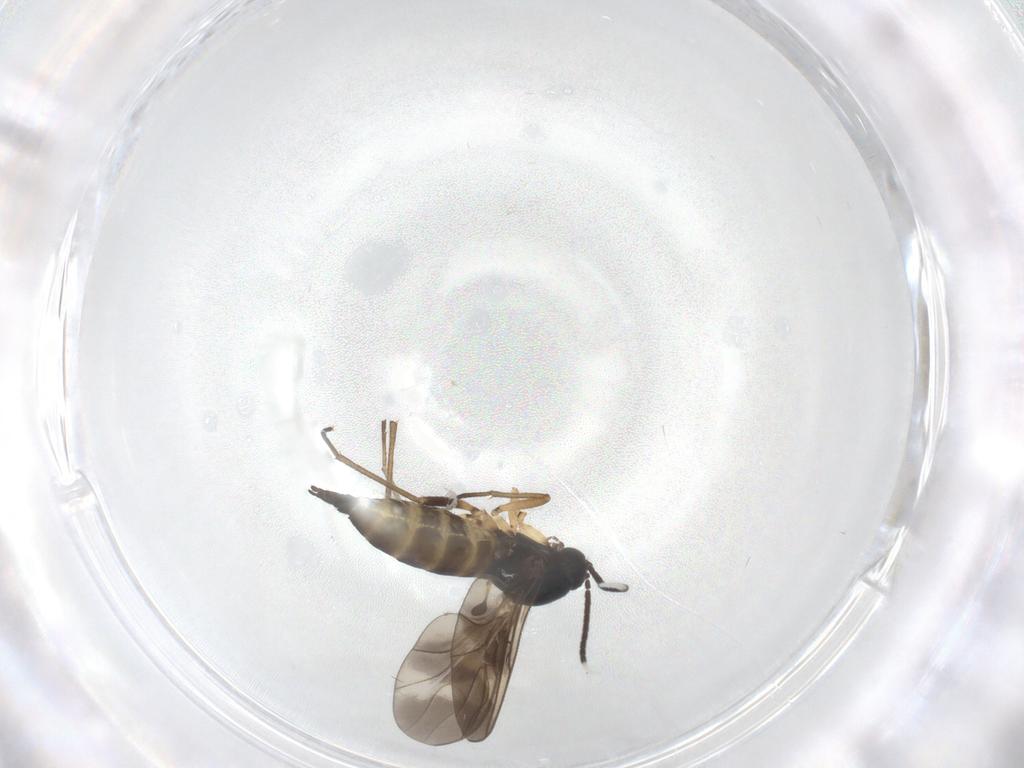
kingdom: Animalia
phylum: Arthropoda
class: Insecta
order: Diptera
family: Sciaridae
